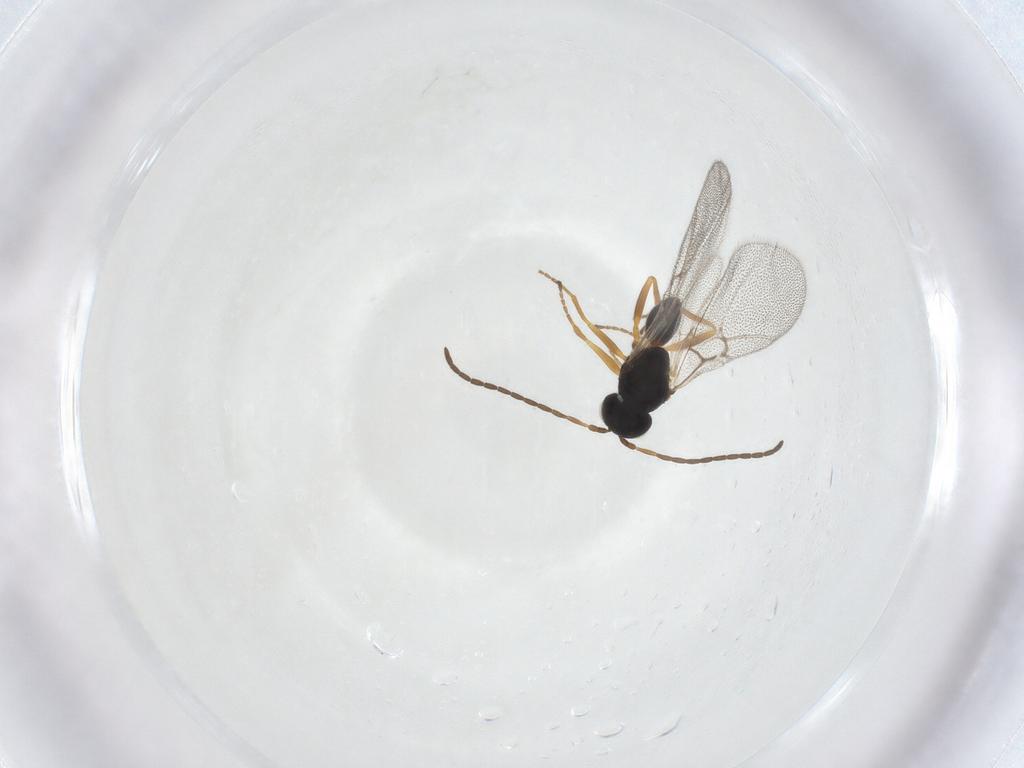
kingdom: Animalia
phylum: Arthropoda
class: Insecta
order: Hymenoptera
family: Cynipidae
